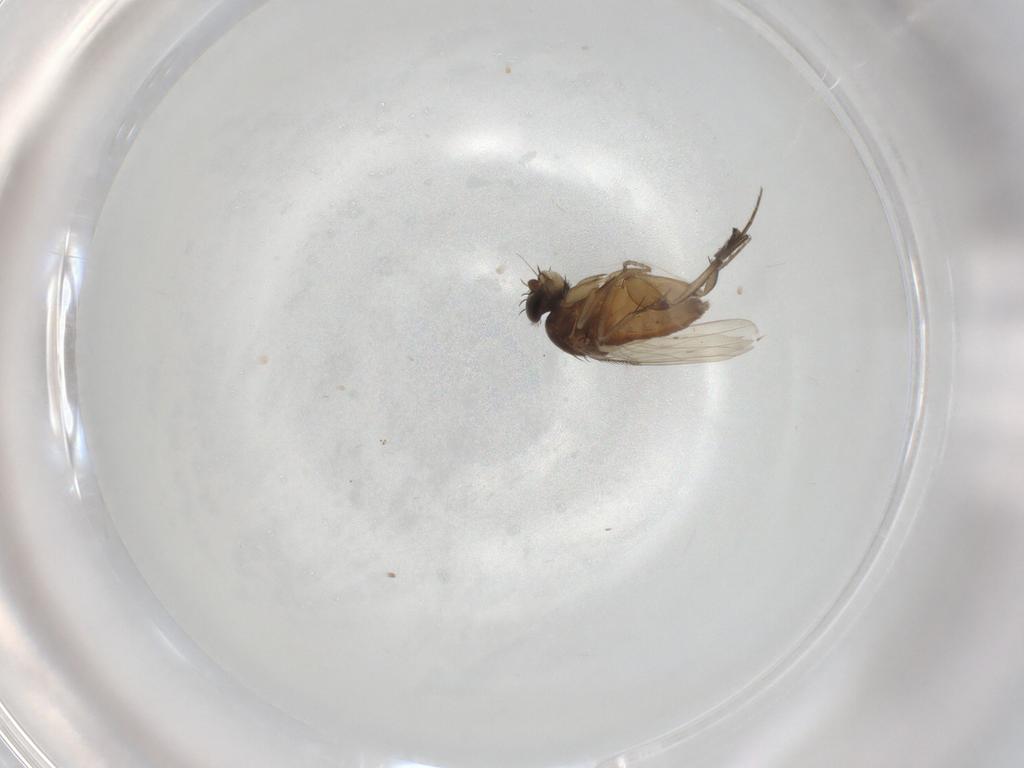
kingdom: Animalia
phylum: Arthropoda
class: Insecta
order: Diptera
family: Phoridae
